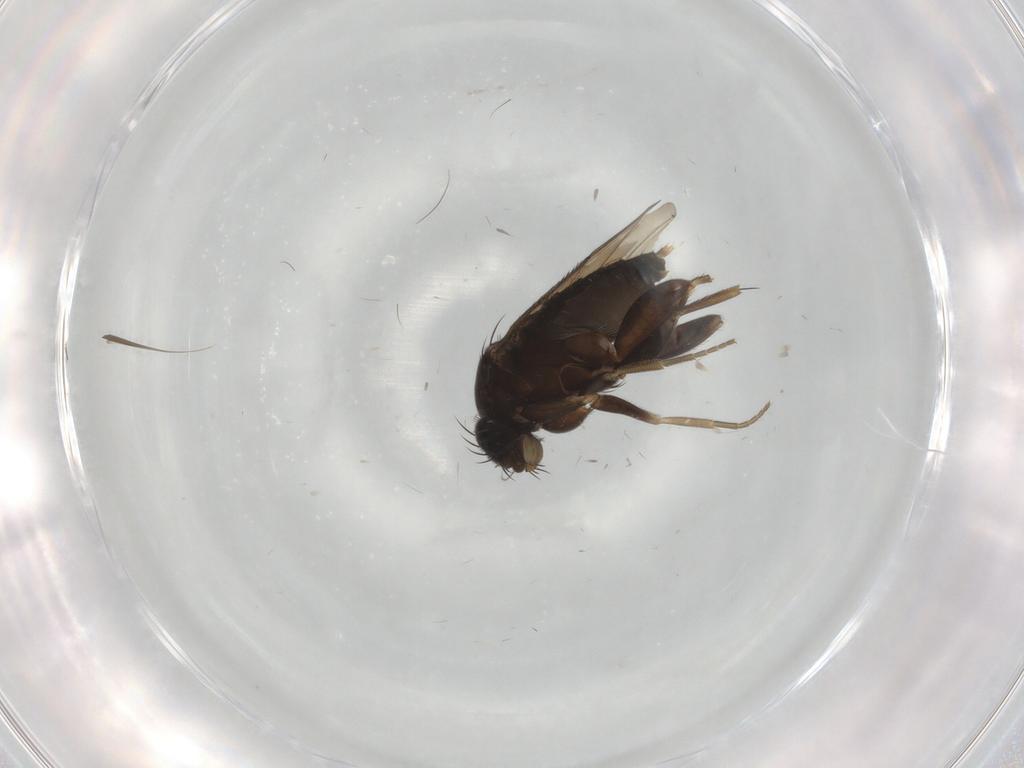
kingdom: Animalia
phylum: Arthropoda
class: Insecta
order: Diptera
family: Phoridae
